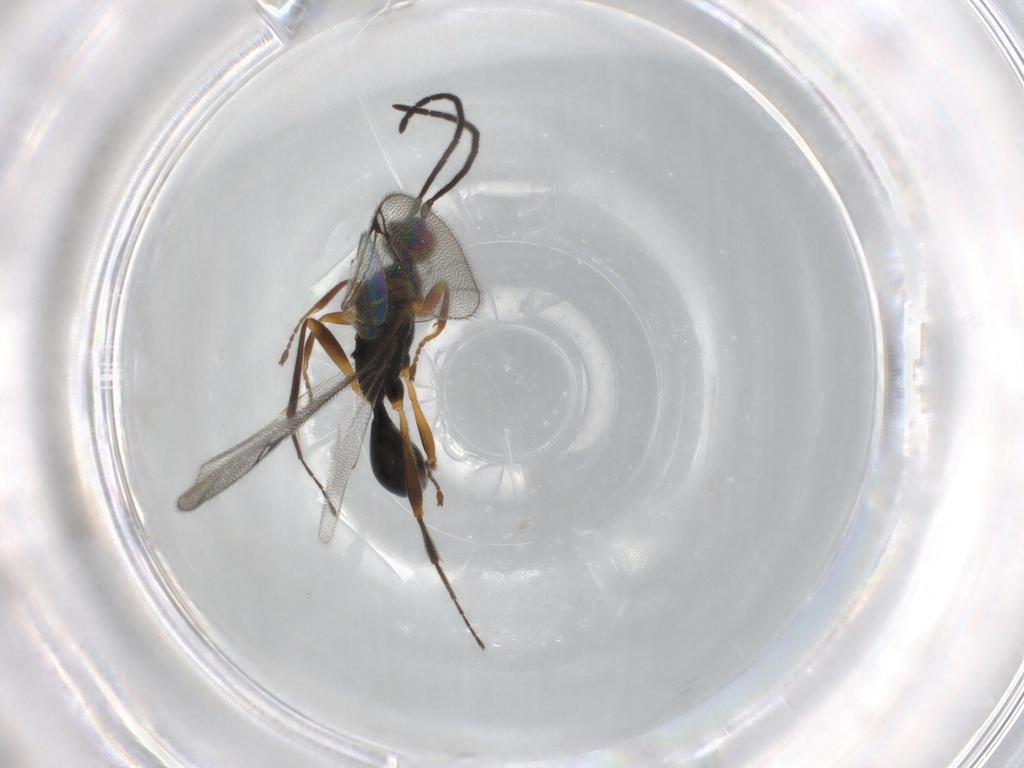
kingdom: Animalia
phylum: Arthropoda
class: Insecta
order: Hymenoptera
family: Proctotrupidae
